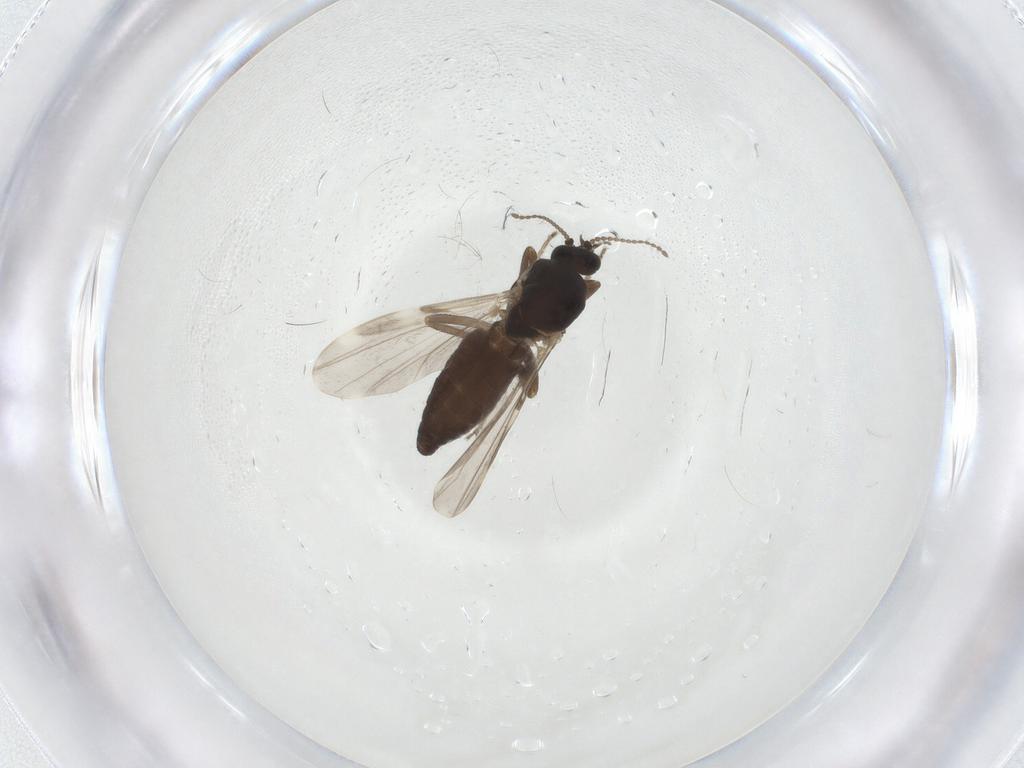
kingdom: Animalia
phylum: Arthropoda
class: Insecta
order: Diptera
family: Ceratopogonidae
